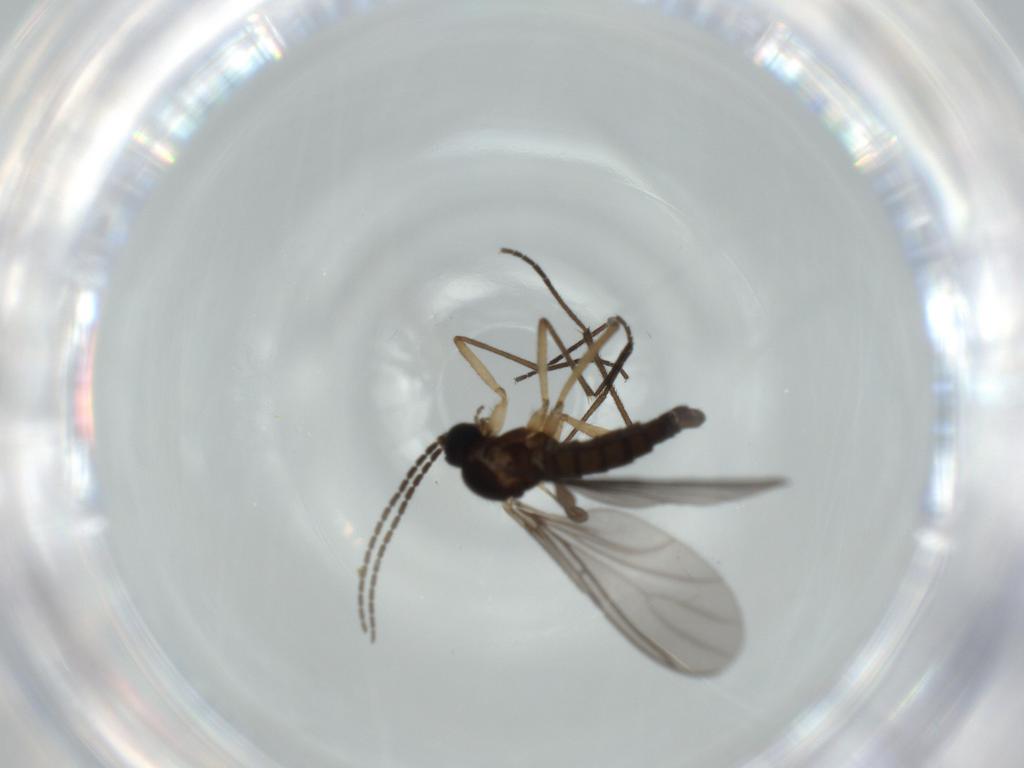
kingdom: Animalia
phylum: Arthropoda
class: Insecta
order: Diptera
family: Sciaridae
